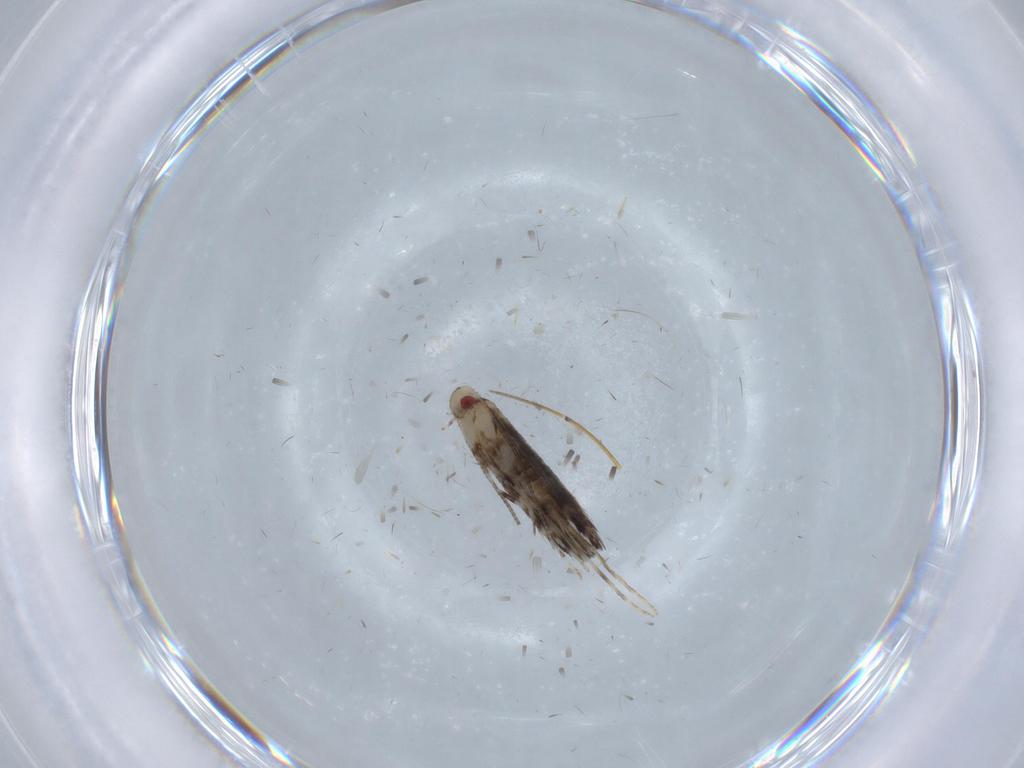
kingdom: Animalia
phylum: Arthropoda
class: Insecta
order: Lepidoptera
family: Gracillariidae
